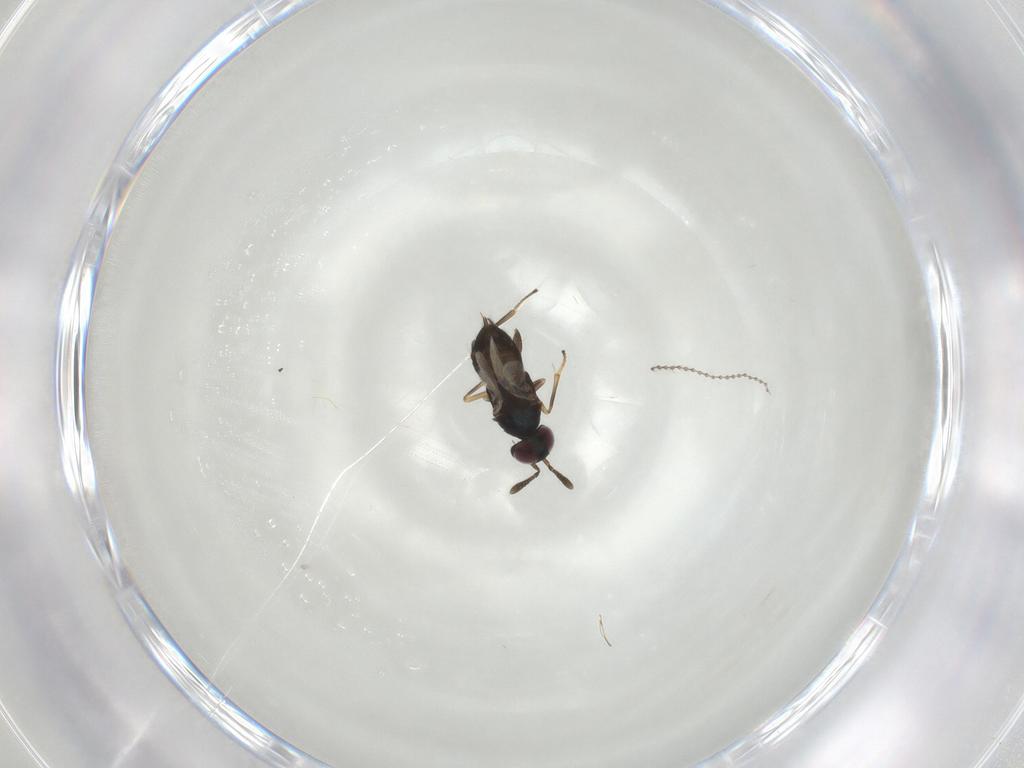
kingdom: Animalia
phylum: Arthropoda
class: Insecta
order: Hymenoptera
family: Encyrtidae
